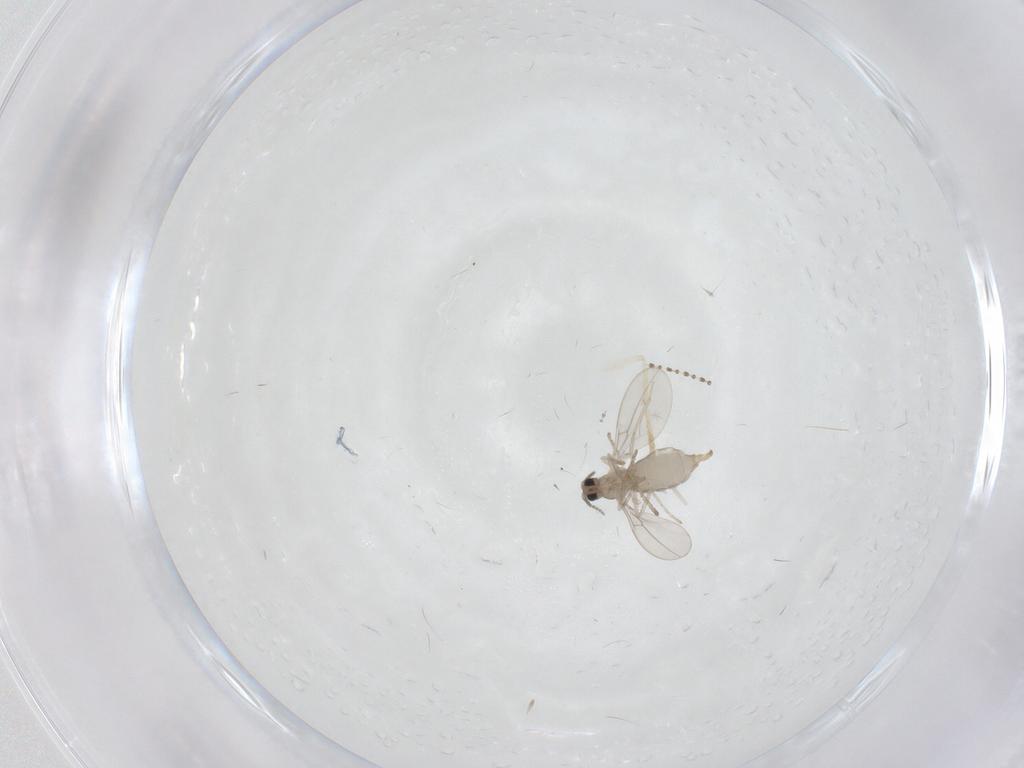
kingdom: Animalia
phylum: Arthropoda
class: Insecta
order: Diptera
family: Psychodidae
